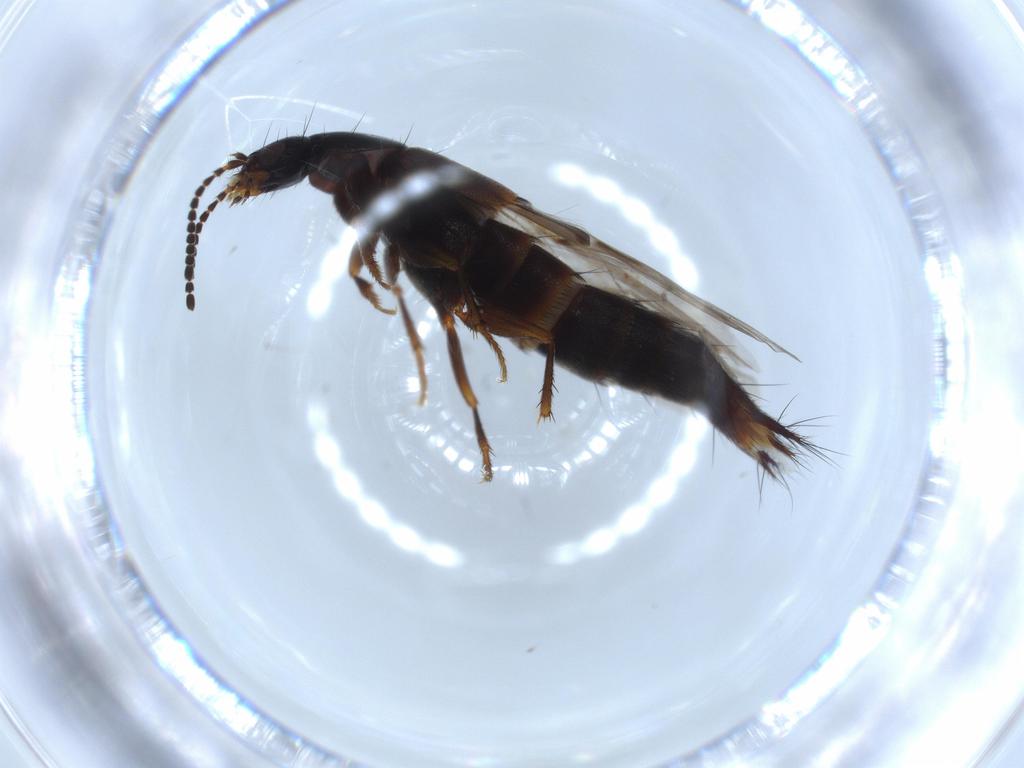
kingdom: Animalia
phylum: Arthropoda
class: Insecta
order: Coleoptera
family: Staphylinidae
